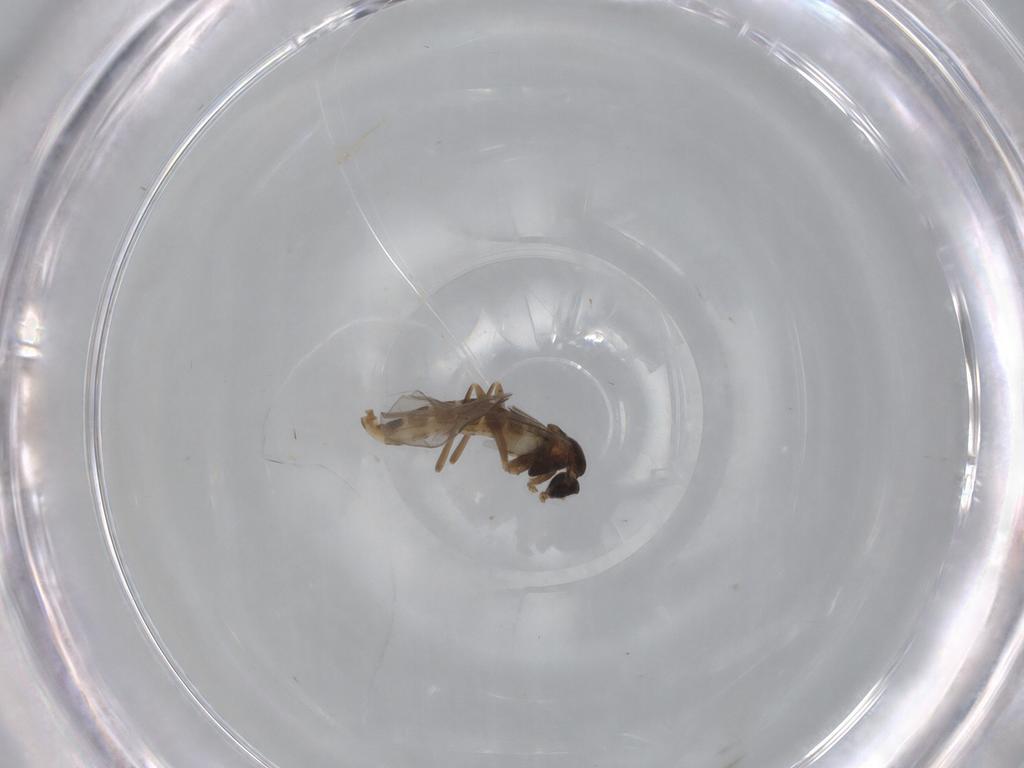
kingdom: Animalia
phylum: Arthropoda
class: Insecta
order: Diptera
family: Cecidomyiidae
